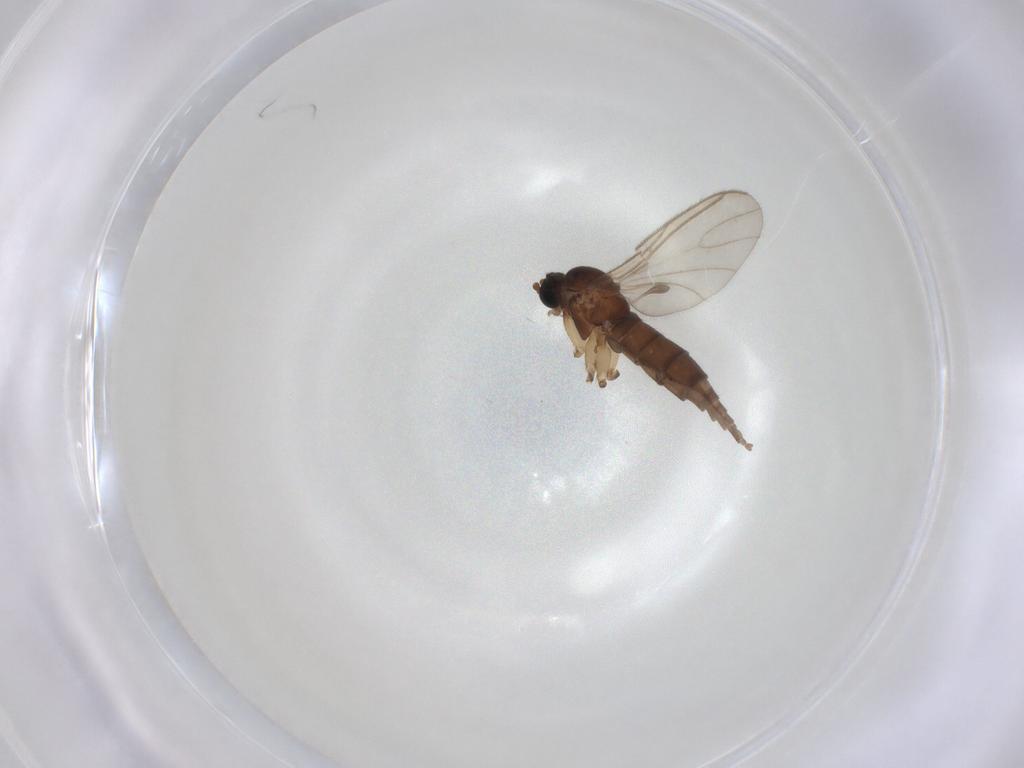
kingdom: Animalia
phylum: Arthropoda
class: Insecta
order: Diptera
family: Sciaridae
